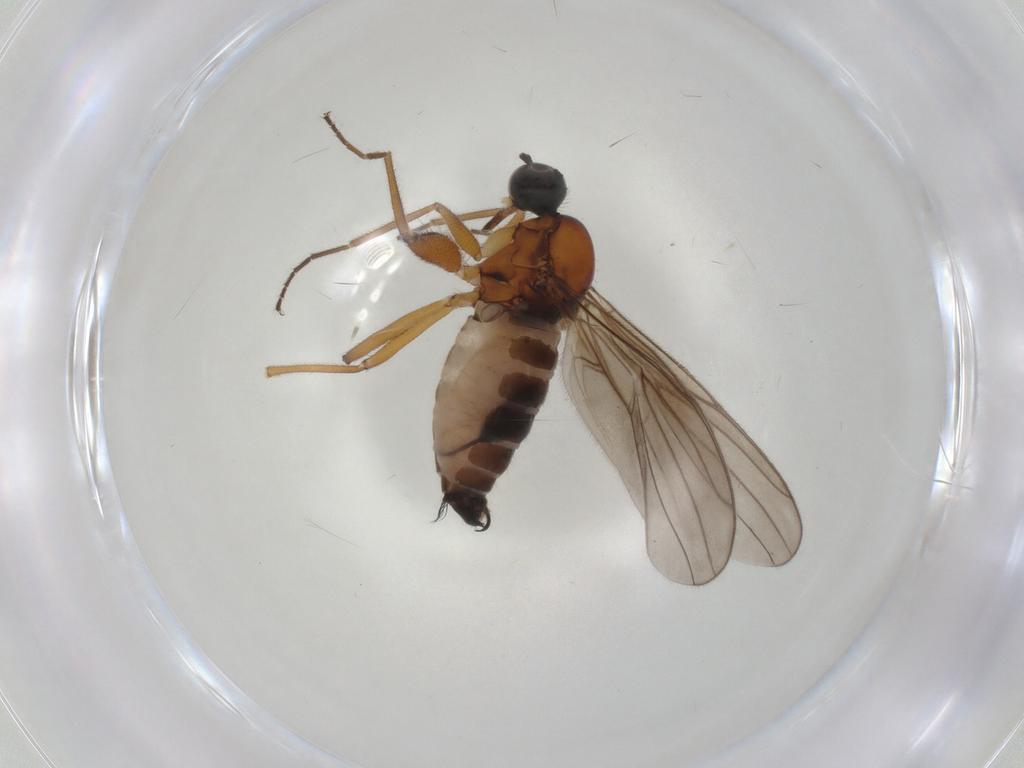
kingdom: Animalia
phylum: Arthropoda
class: Insecta
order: Diptera
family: Hybotidae
